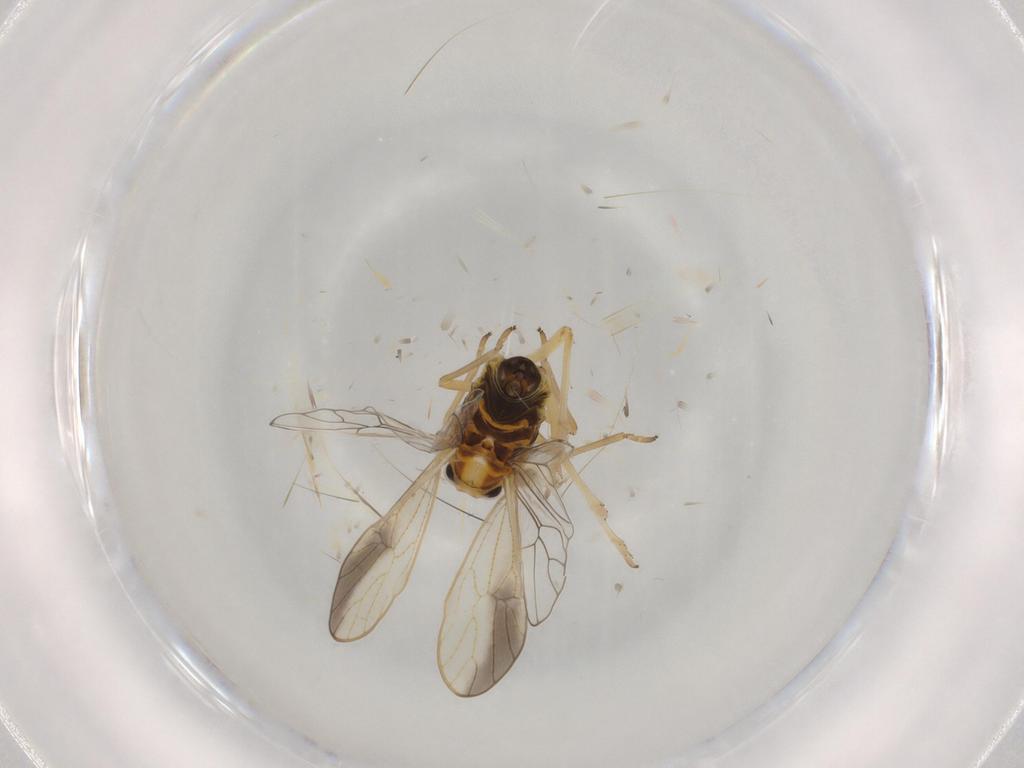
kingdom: Animalia
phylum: Arthropoda
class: Insecta
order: Hemiptera
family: Delphacidae
